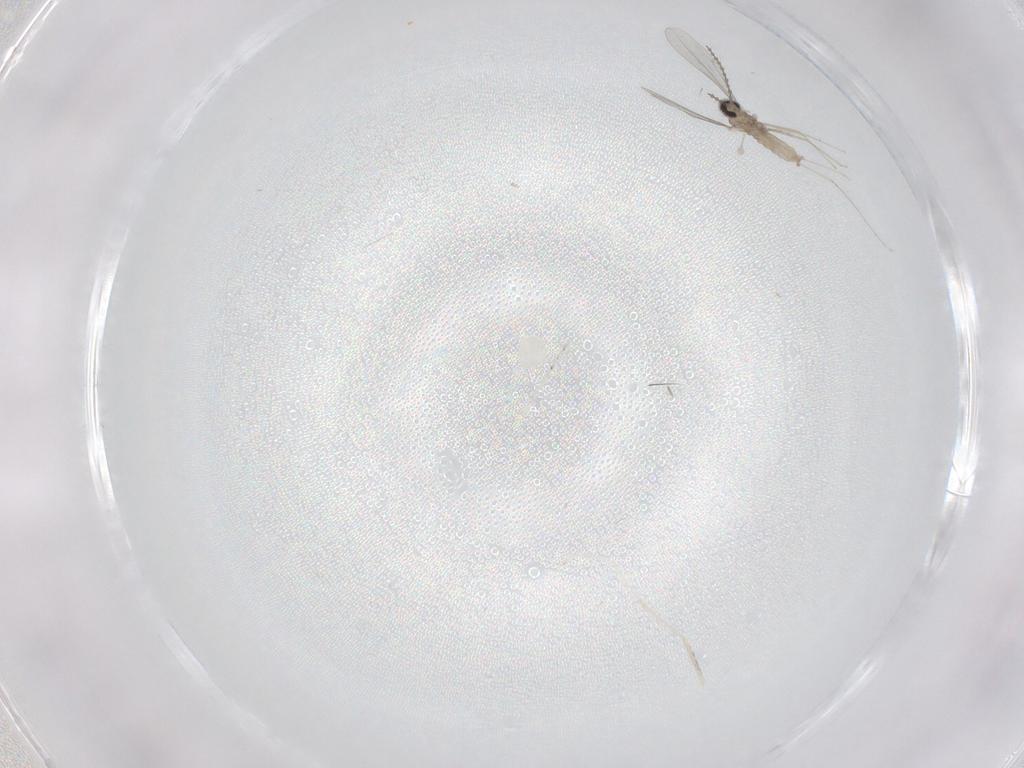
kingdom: Animalia
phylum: Arthropoda
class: Insecta
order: Diptera
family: Cecidomyiidae
